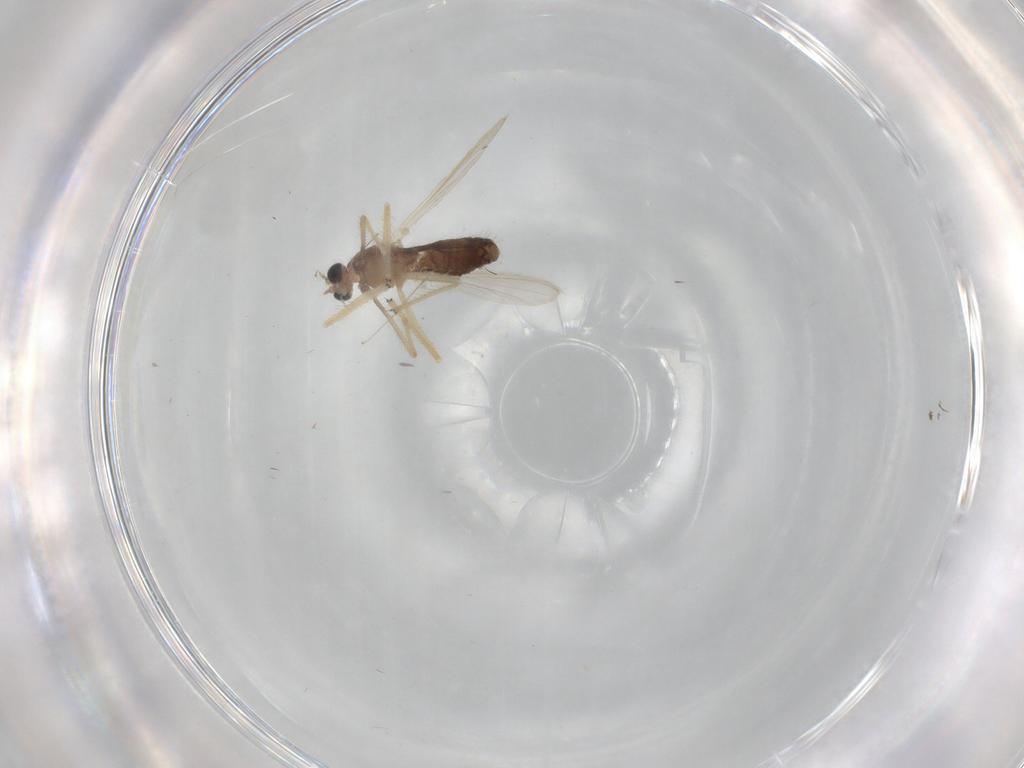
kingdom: Animalia
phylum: Arthropoda
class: Insecta
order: Diptera
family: Chironomidae
